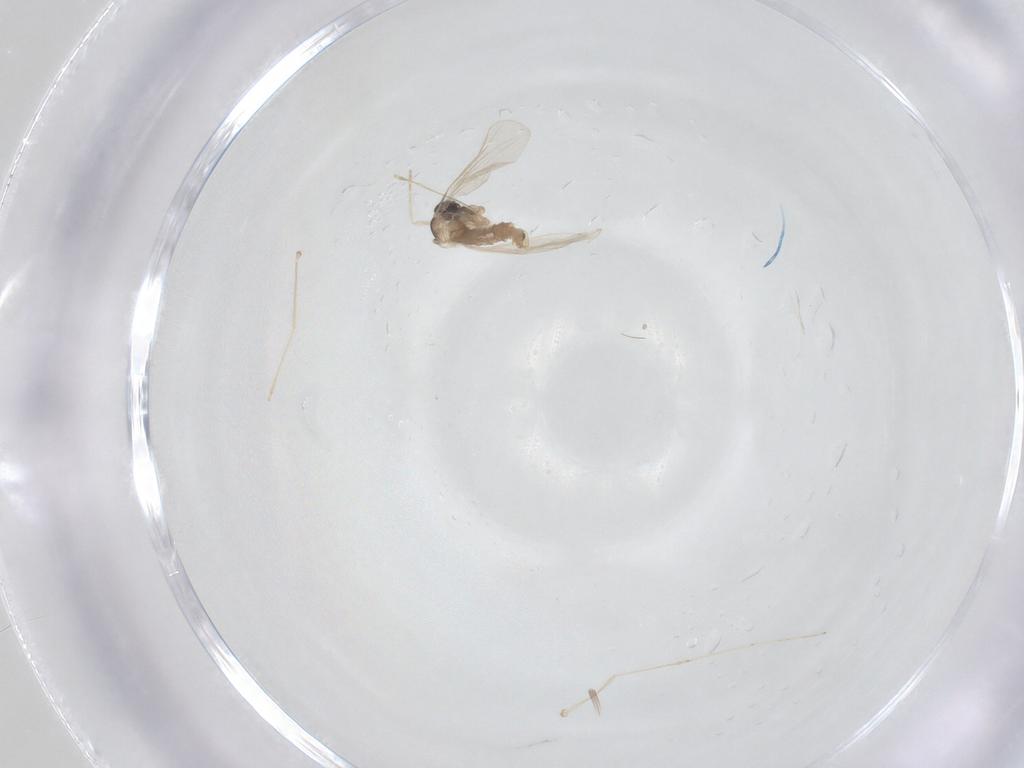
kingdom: Animalia
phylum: Arthropoda
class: Insecta
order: Diptera
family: Cecidomyiidae
